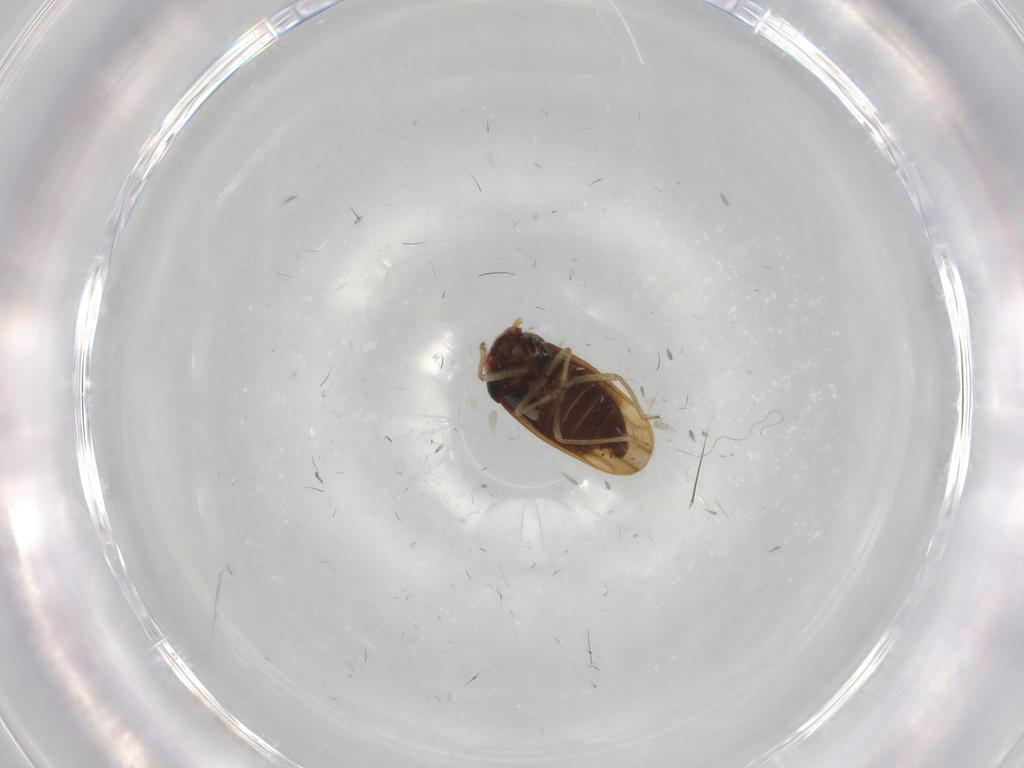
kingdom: Animalia
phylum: Arthropoda
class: Insecta
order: Hemiptera
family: Schizopteridae
